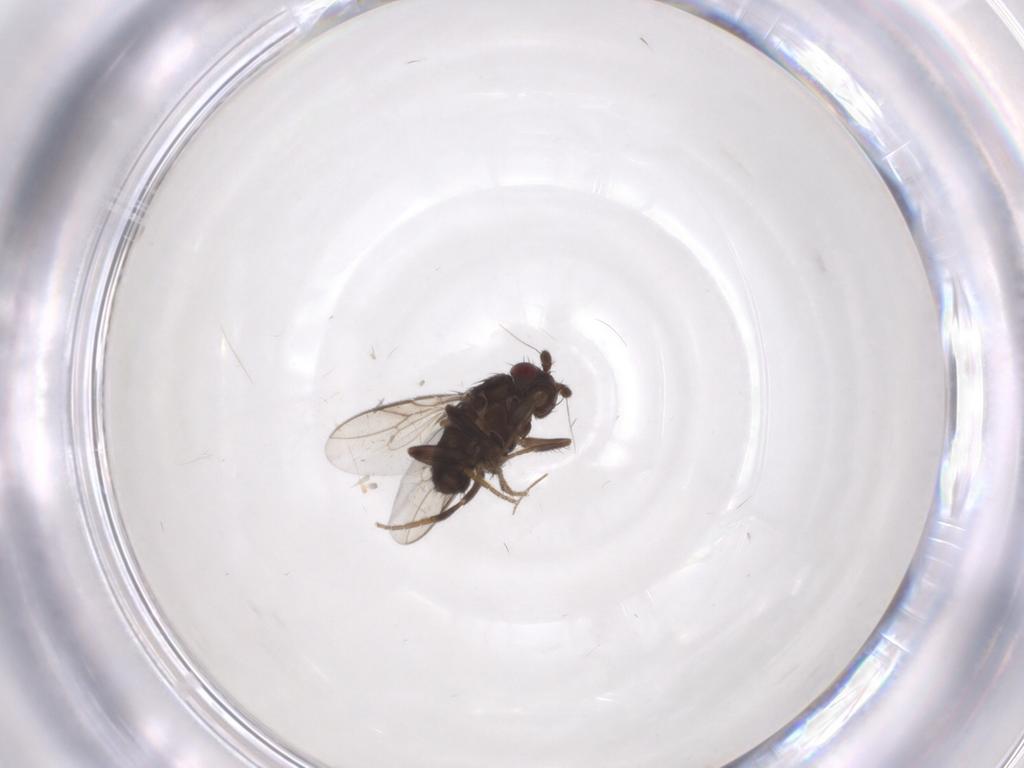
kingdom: Animalia
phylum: Arthropoda
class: Insecta
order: Diptera
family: Sphaeroceridae
